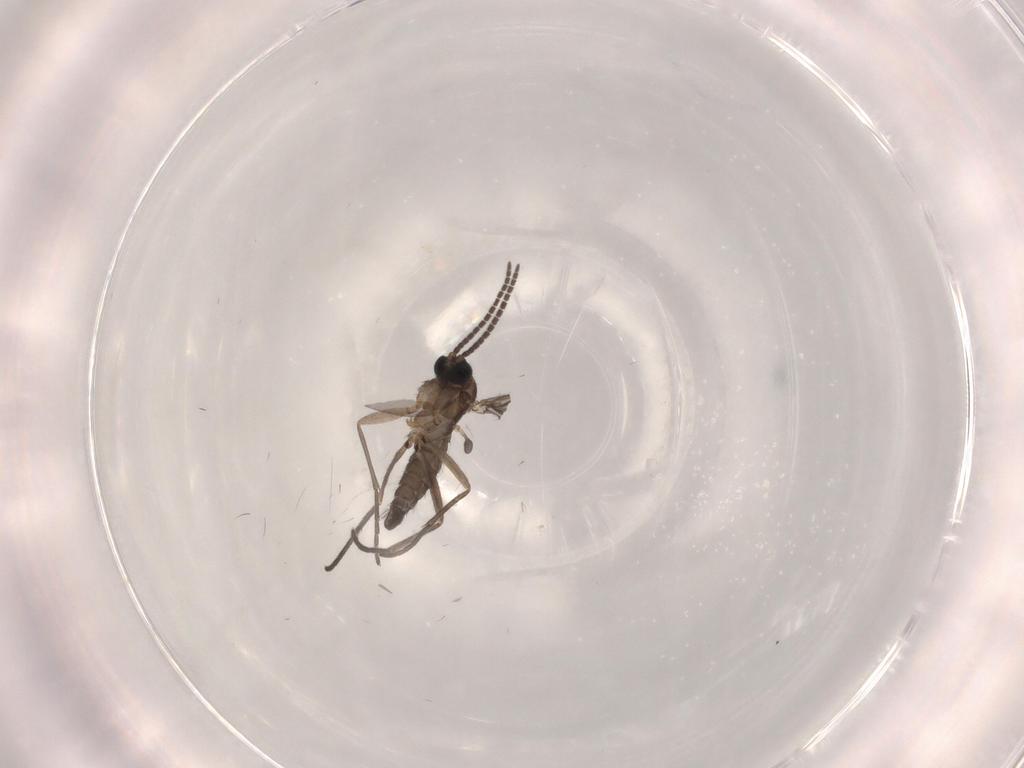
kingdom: Animalia
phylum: Arthropoda
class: Insecta
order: Diptera
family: Sciaridae
